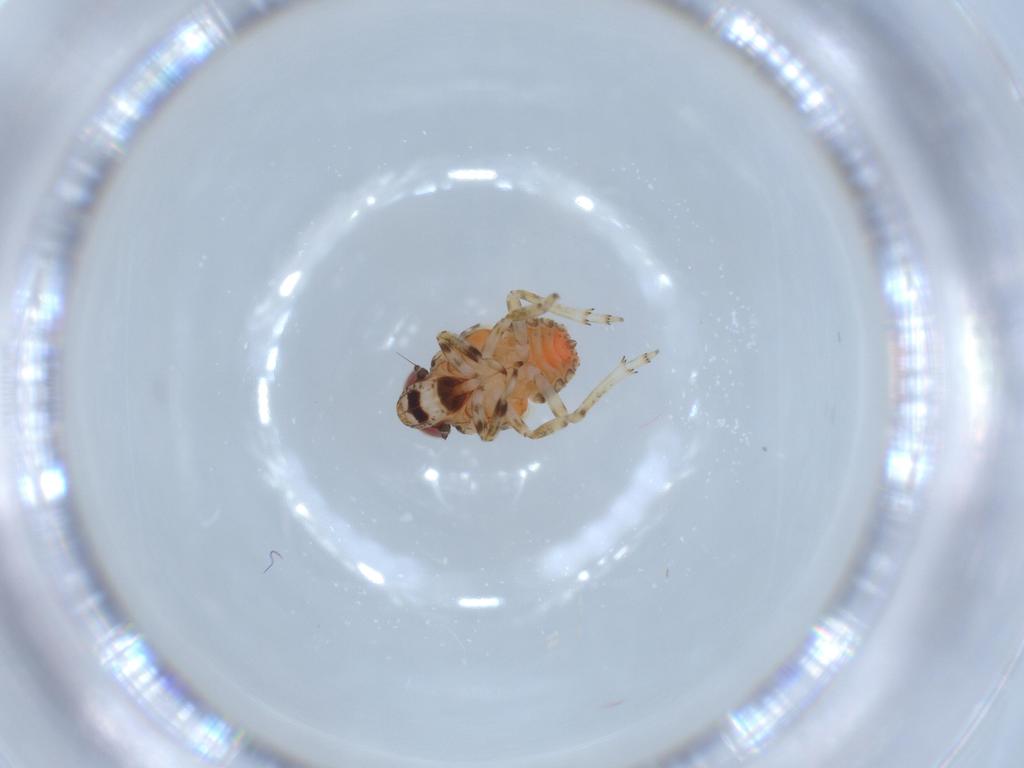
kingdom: Animalia
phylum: Arthropoda
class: Insecta
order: Hemiptera
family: Issidae
